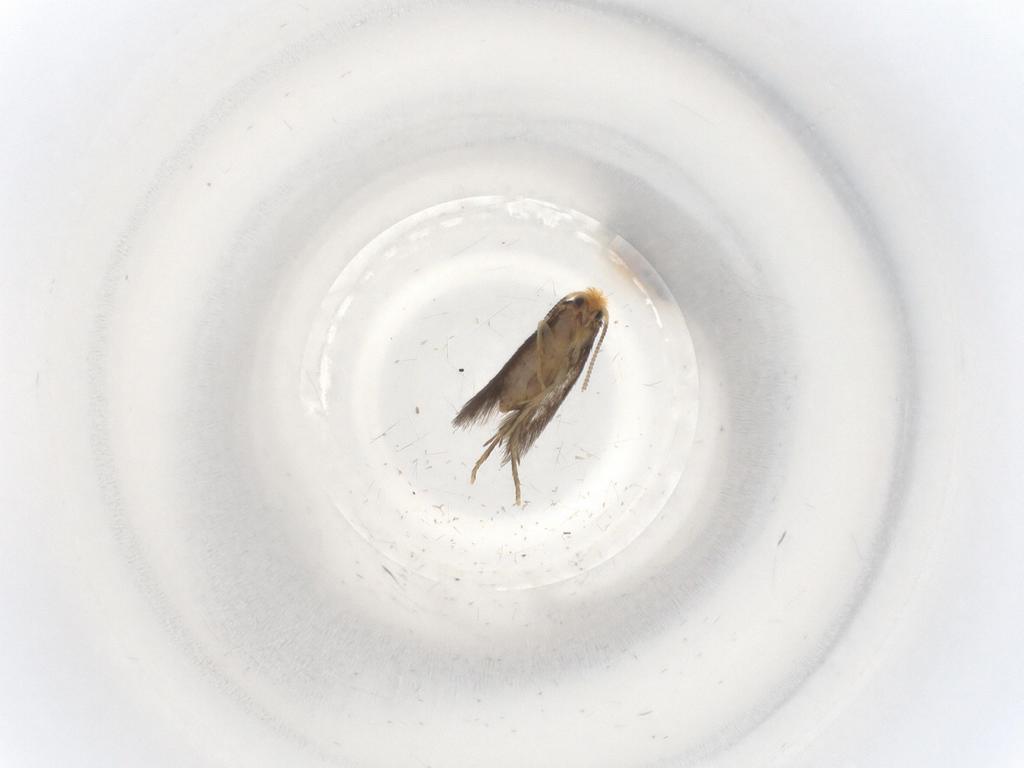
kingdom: Animalia
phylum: Arthropoda
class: Insecta
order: Lepidoptera
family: Nepticulidae
